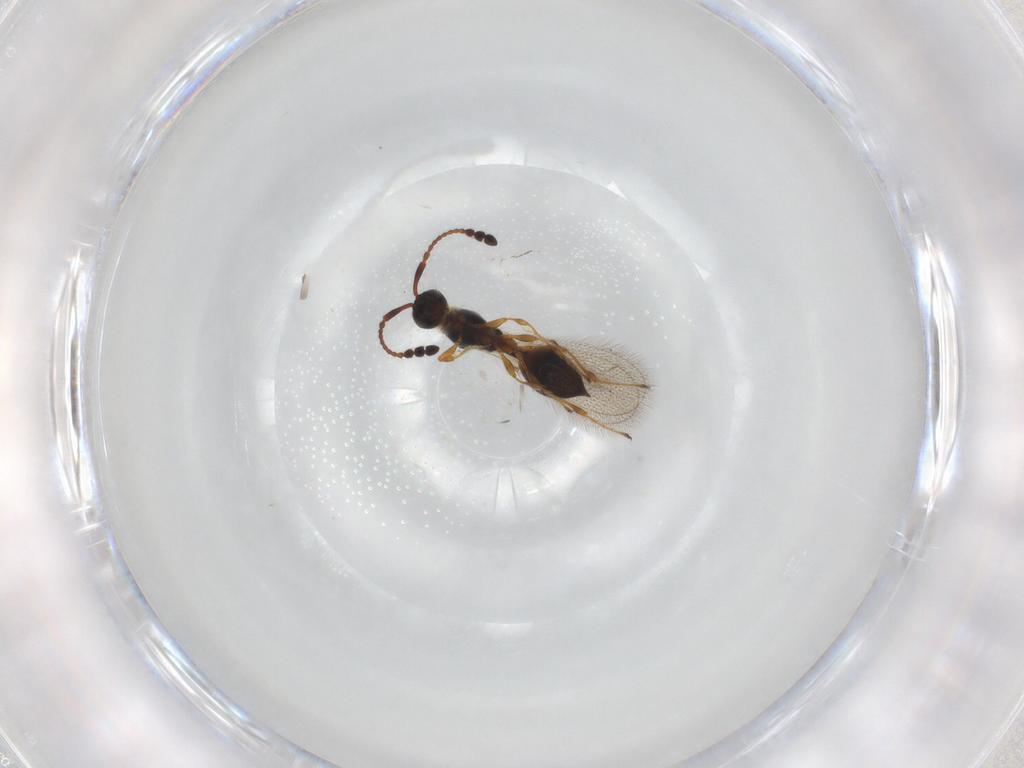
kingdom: Animalia
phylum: Arthropoda
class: Insecta
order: Hymenoptera
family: Diapriidae
